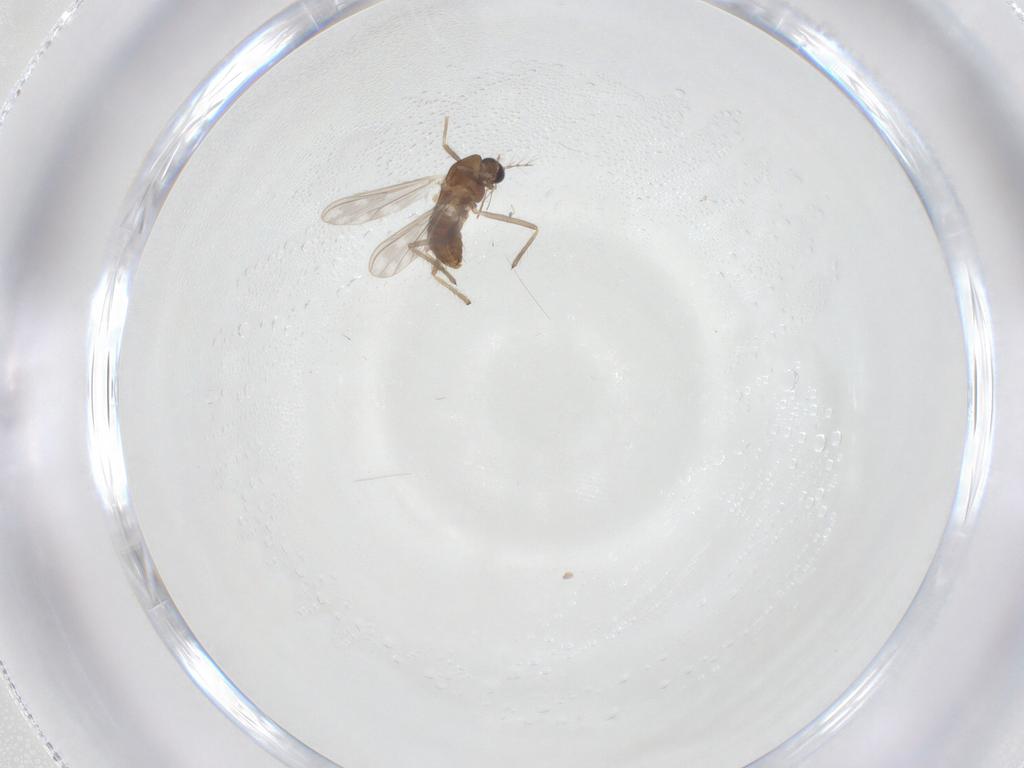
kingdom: Animalia
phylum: Arthropoda
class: Insecta
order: Diptera
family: Chironomidae
